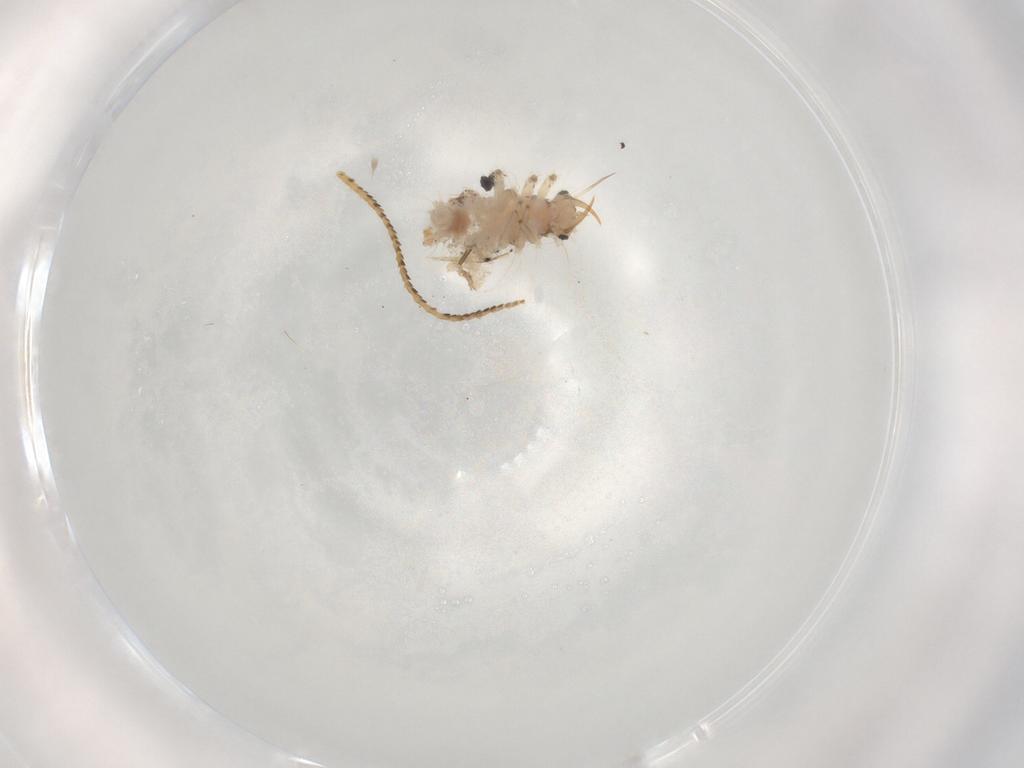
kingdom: Animalia
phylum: Arthropoda
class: Insecta
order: Neuroptera
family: Chrysopidae
